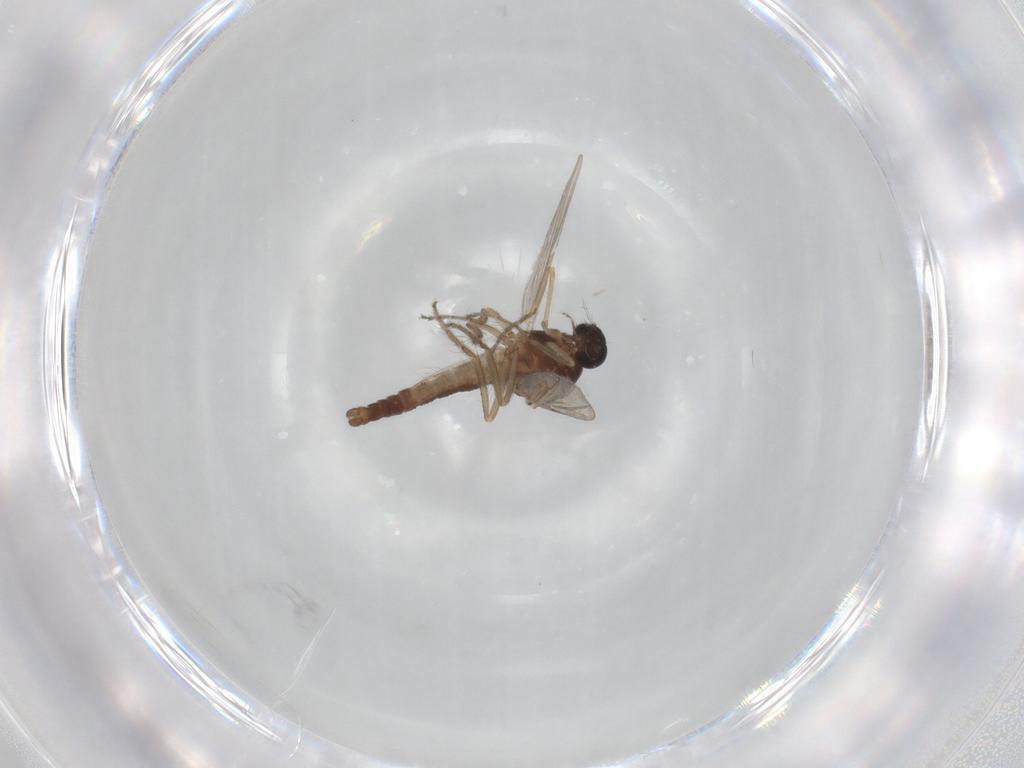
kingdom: Animalia
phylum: Arthropoda
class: Insecta
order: Diptera
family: Ceratopogonidae
